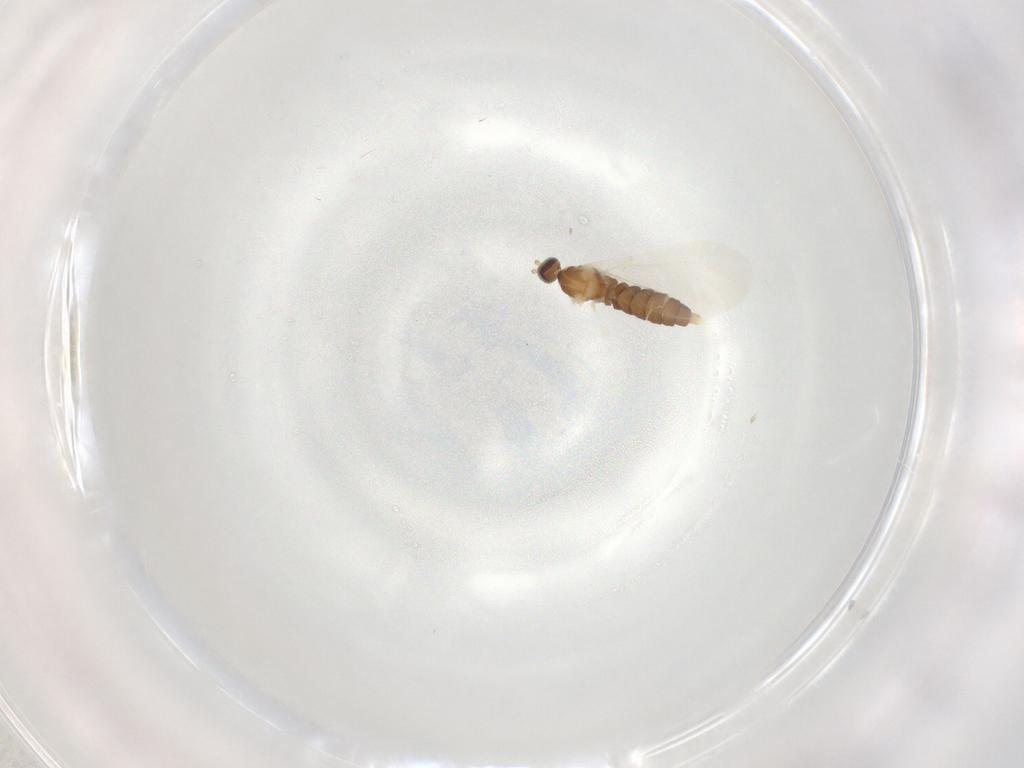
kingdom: Animalia
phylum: Arthropoda
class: Insecta
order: Diptera
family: Cecidomyiidae
